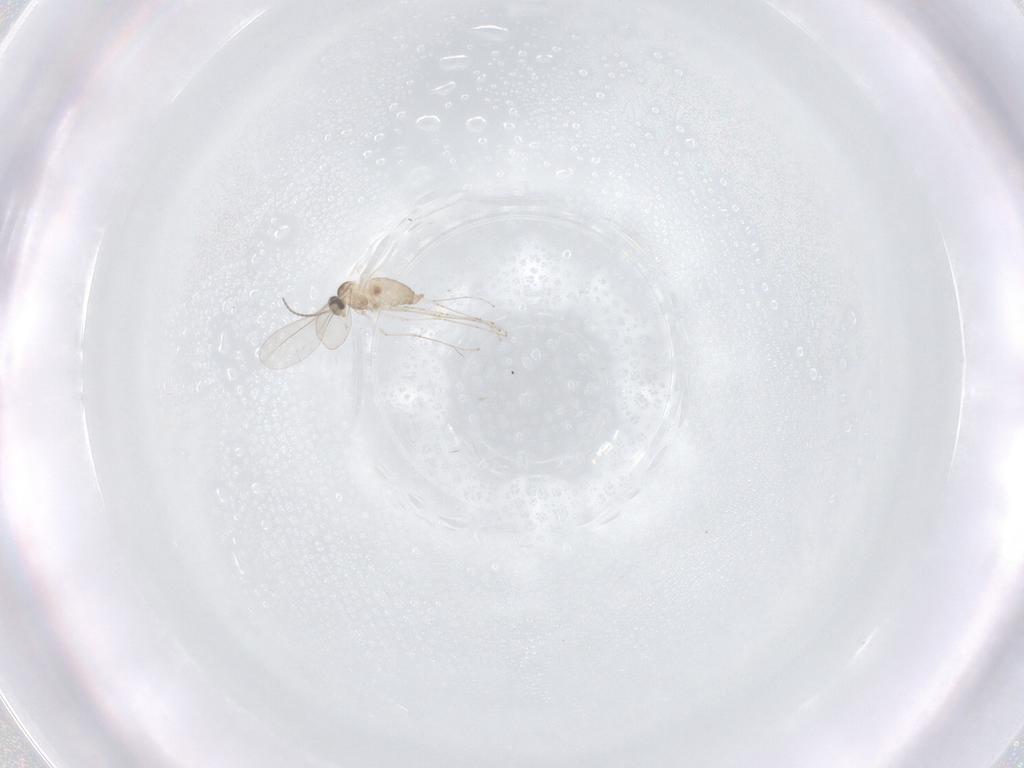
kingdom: Animalia
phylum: Arthropoda
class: Insecta
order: Diptera
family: Cecidomyiidae
